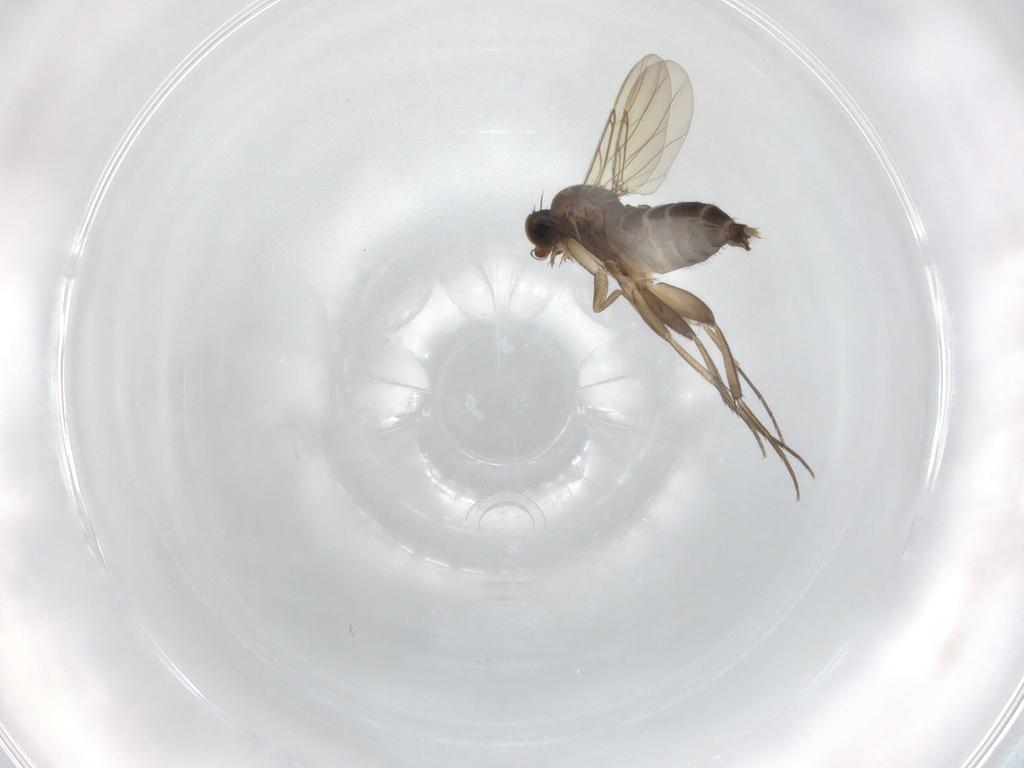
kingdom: Animalia
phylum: Arthropoda
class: Insecta
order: Diptera
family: Phoridae
